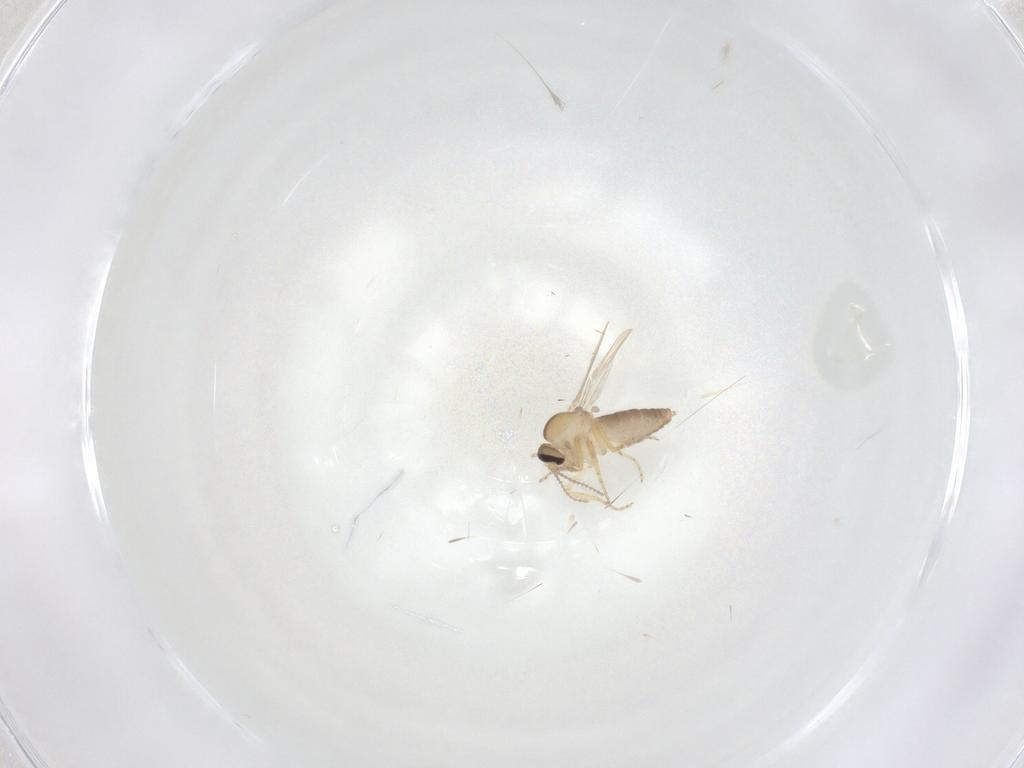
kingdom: Animalia
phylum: Arthropoda
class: Insecta
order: Diptera
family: Ceratopogonidae
